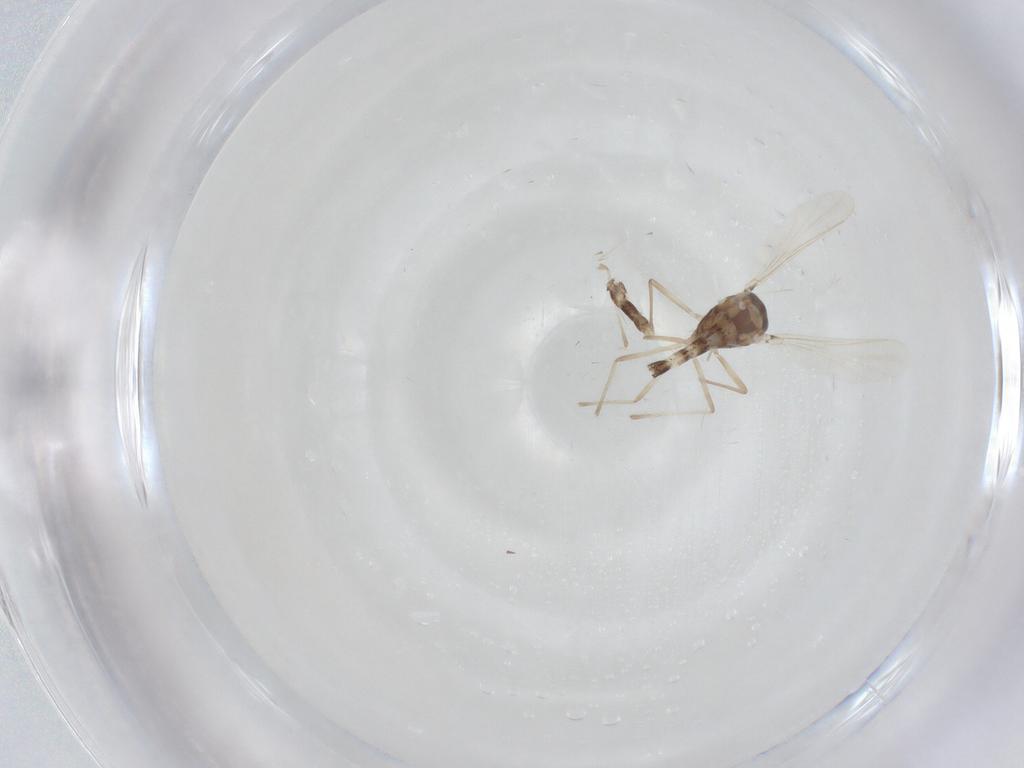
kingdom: Animalia
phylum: Arthropoda
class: Insecta
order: Diptera
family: Chironomidae
